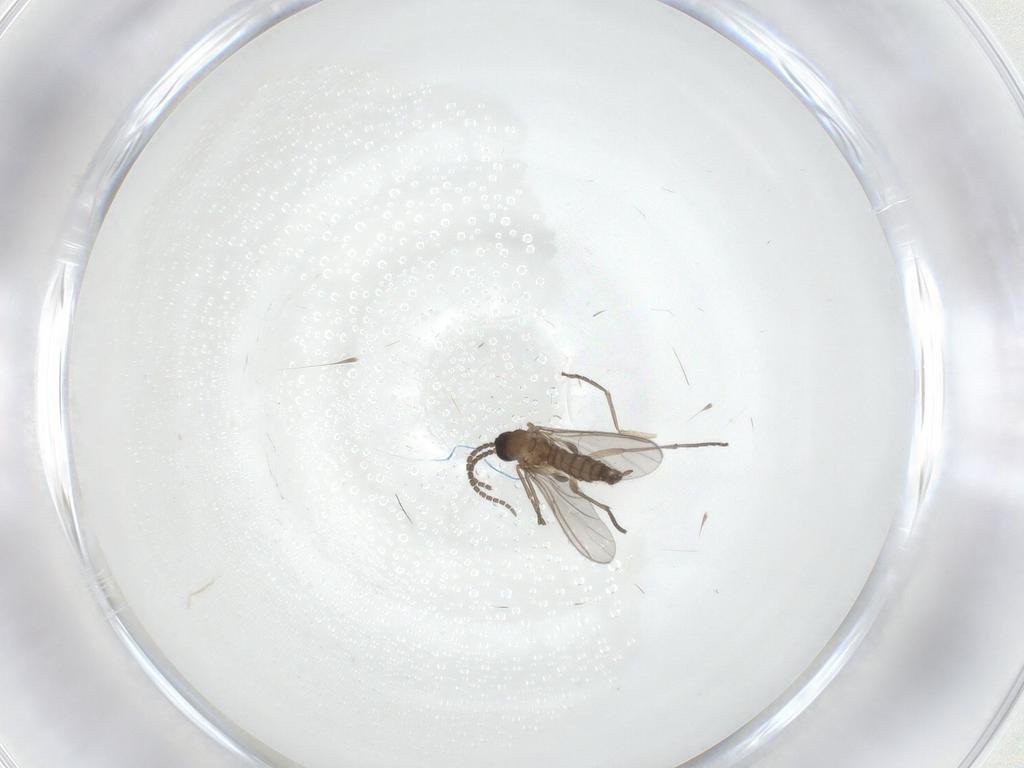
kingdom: Animalia
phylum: Arthropoda
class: Insecta
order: Diptera
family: Sciaridae
